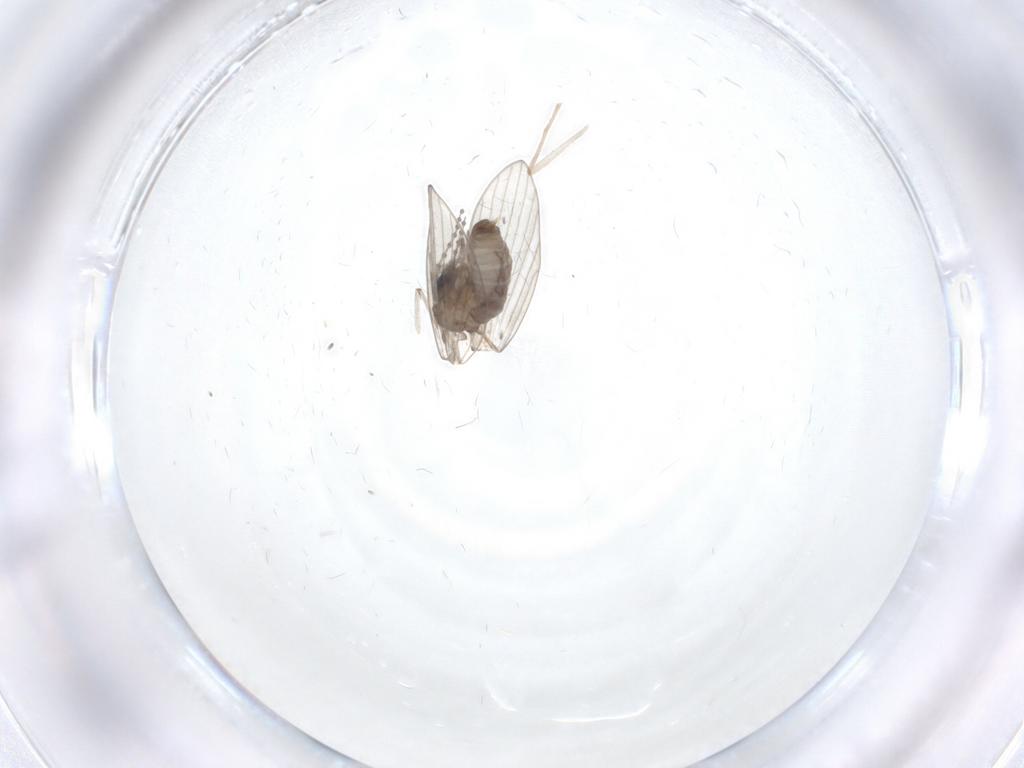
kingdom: Animalia
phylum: Arthropoda
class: Insecta
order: Diptera
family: Chironomidae
